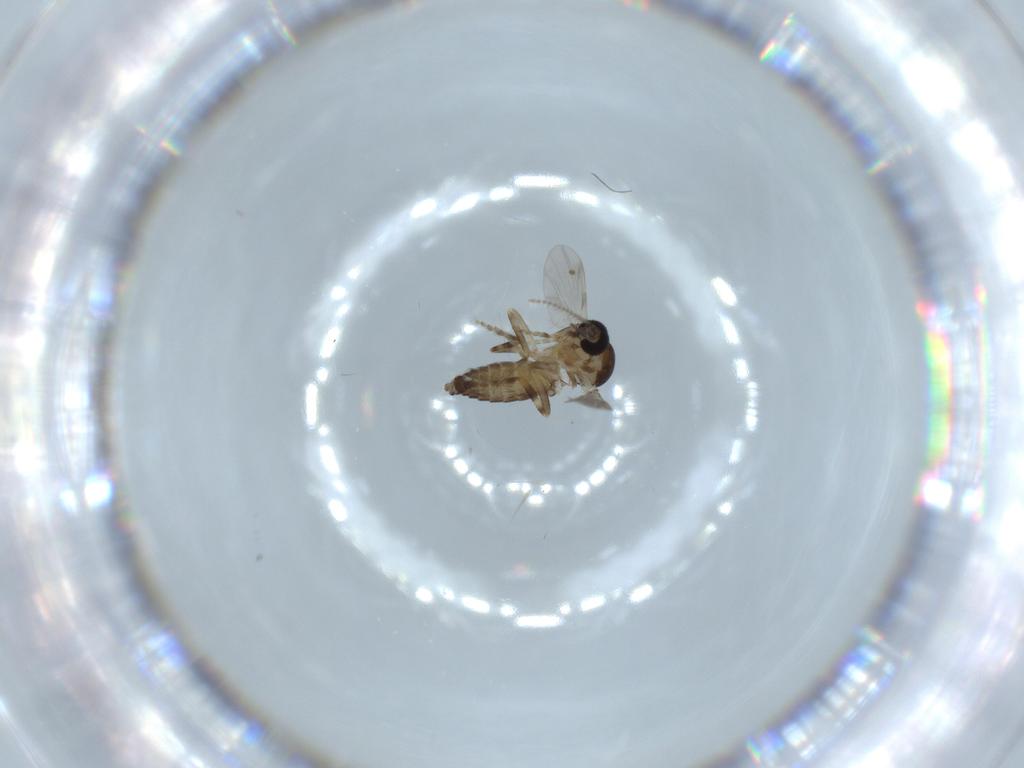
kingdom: Animalia
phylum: Arthropoda
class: Insecta
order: Diptera
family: Ceratopogonidae
